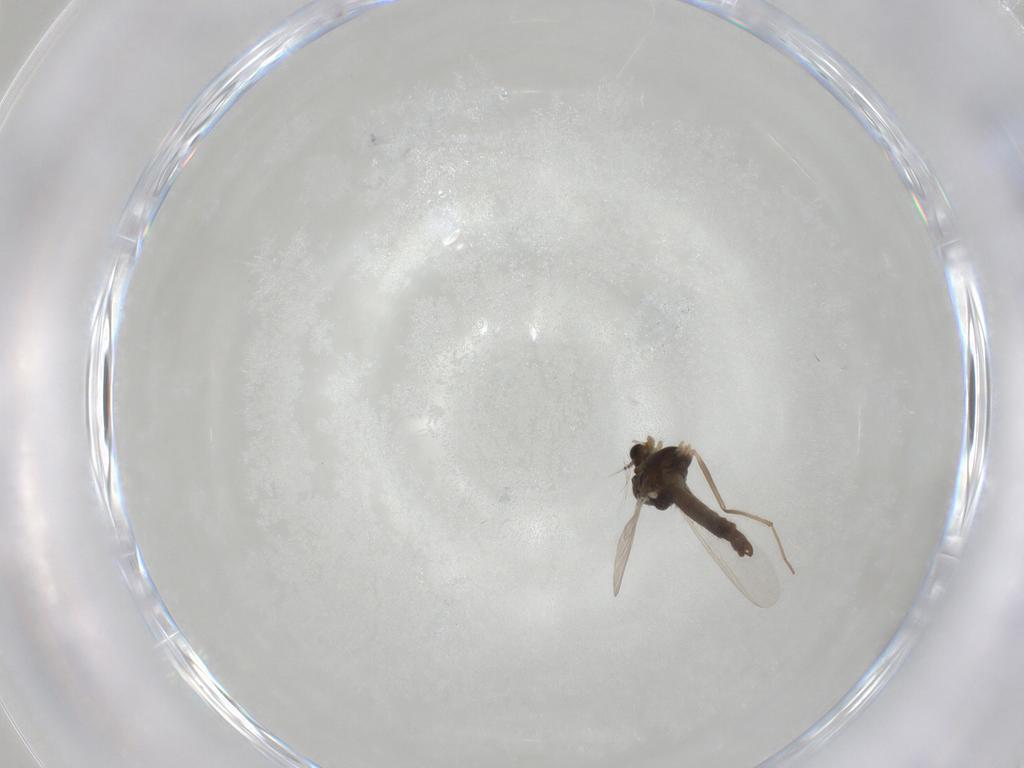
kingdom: Animalia
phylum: Arthropoda
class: Insecta
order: Diptera
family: Chironomidae
